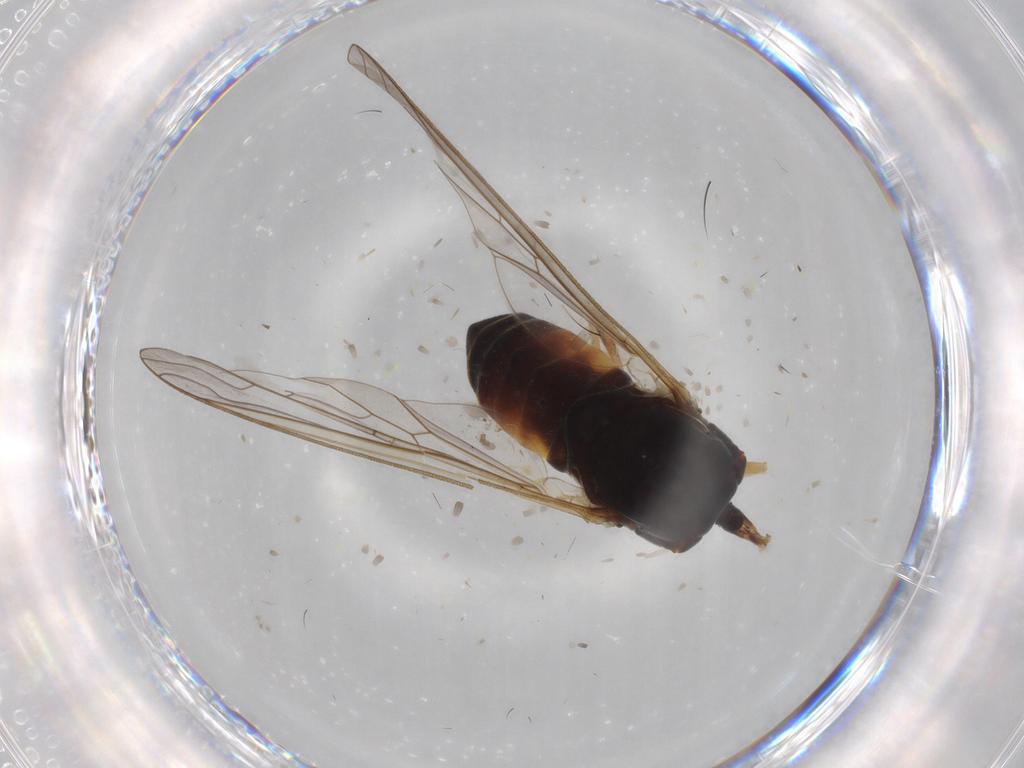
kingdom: Animalia
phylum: Arthropoda
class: Insecta
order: Diptera
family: Bombyliidae
